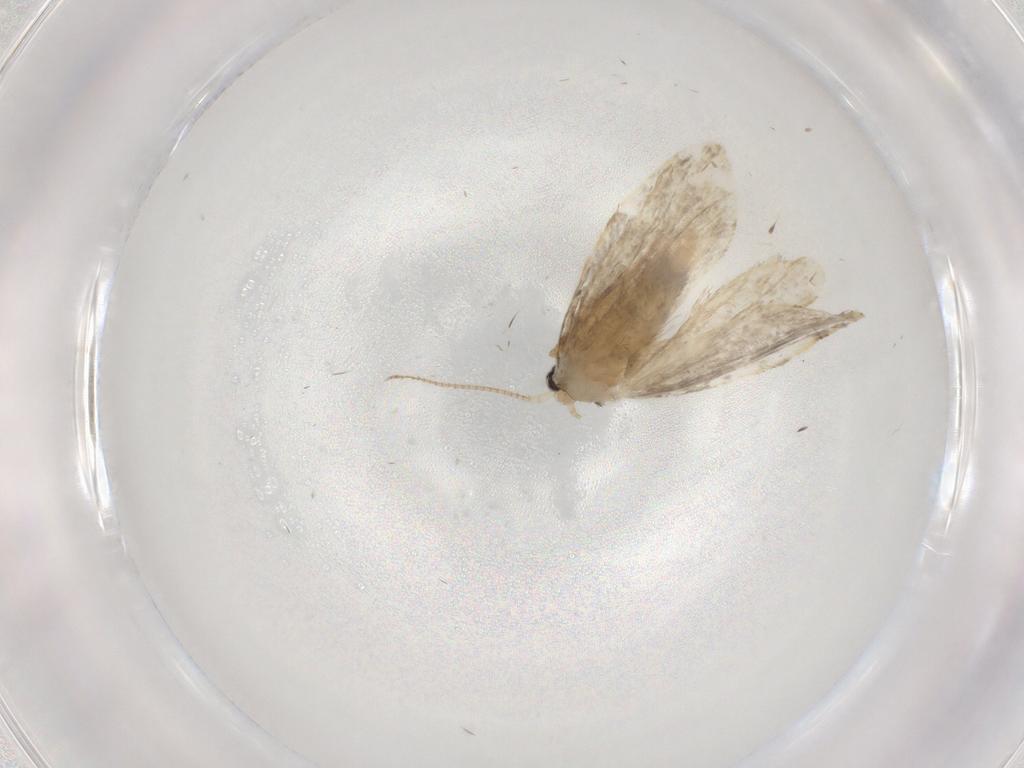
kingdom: Animalia
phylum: Arthropoda
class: Insecta
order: Lepidoptera
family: Psychidae
